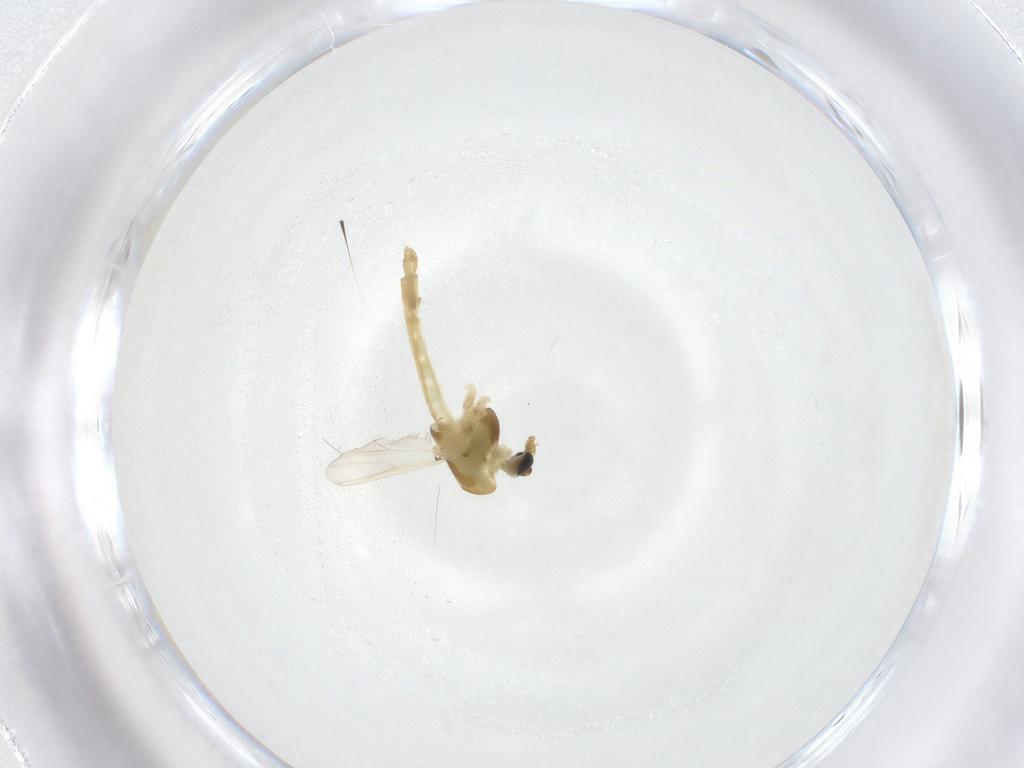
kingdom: Animalia
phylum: Arthropoda
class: Insecta
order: Diptera
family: Chironomidae
